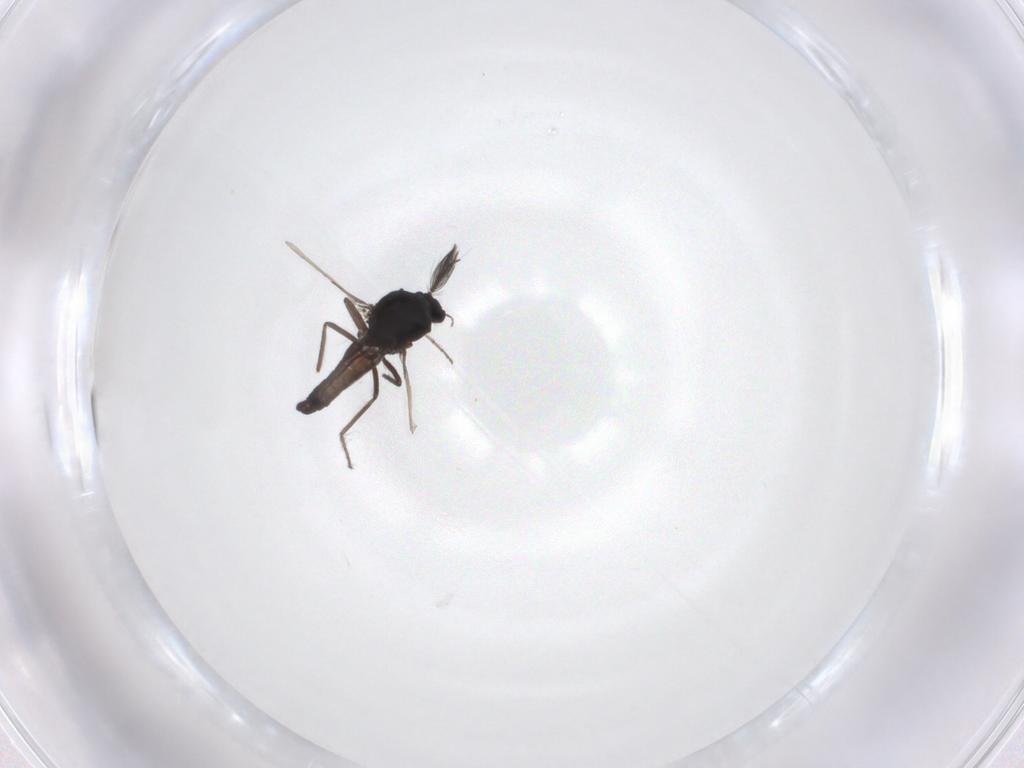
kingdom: Animalia
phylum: Arthropoda
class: Insecta
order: Diptera
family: Ceratopogonidae
